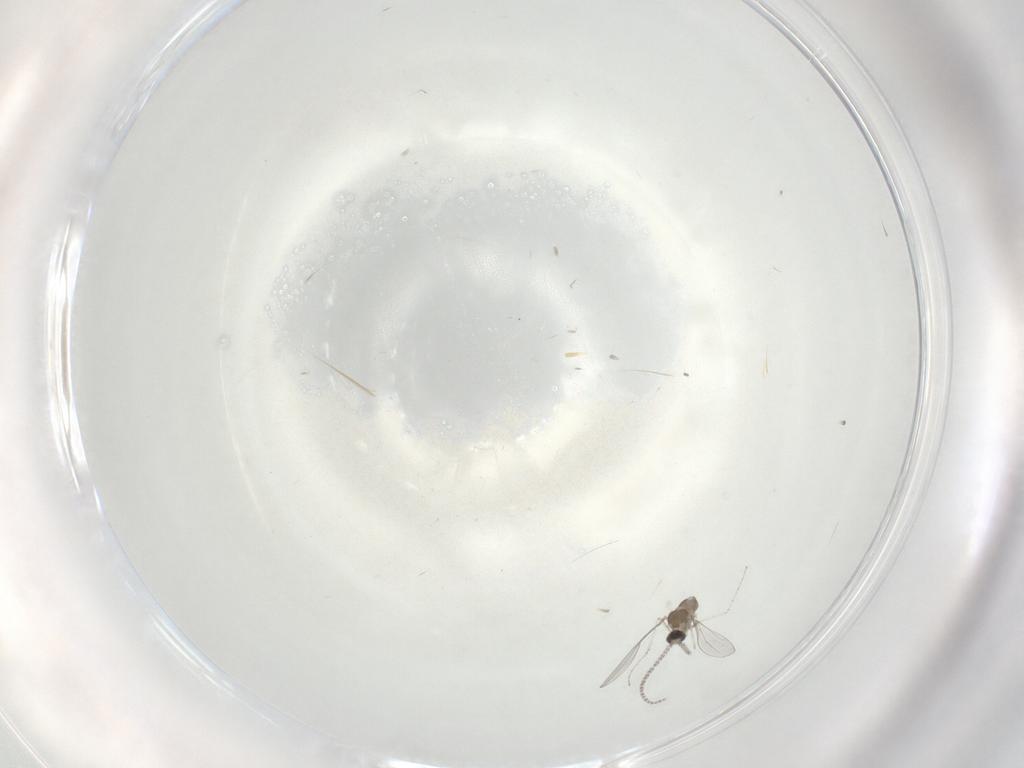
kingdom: Animalia
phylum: Arthropoda
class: Insecta
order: Diptera
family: Cecidomyiidae
